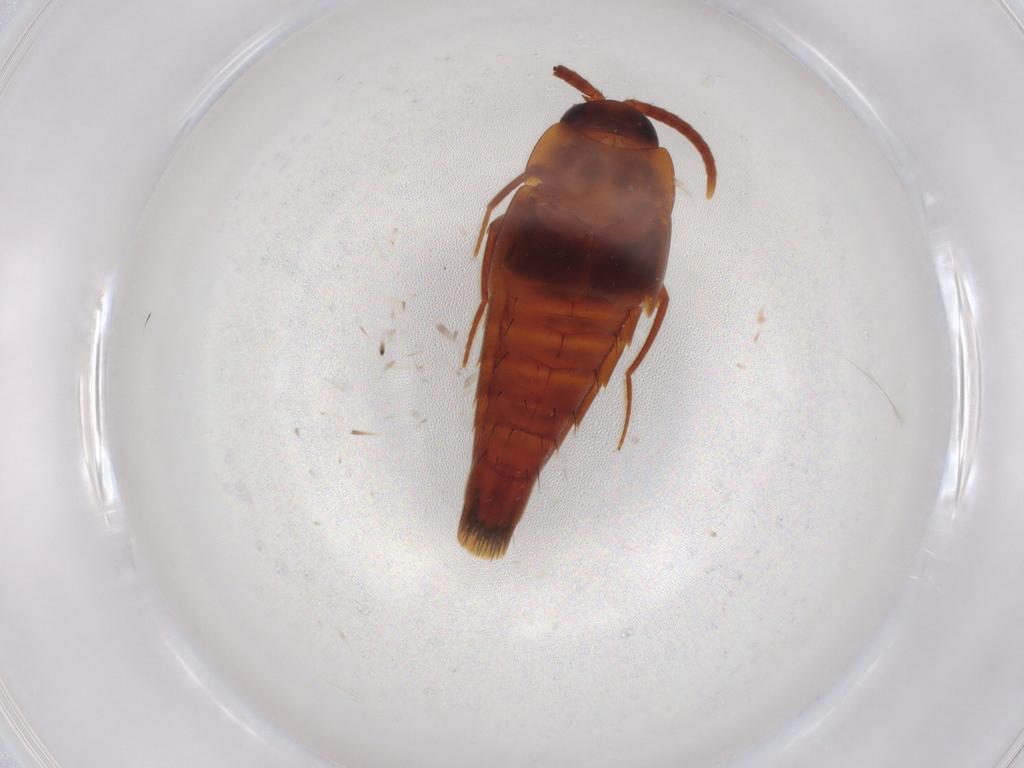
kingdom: Animalia
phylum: Arthropoda
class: Insecta
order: Coleoptera
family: Staphylinidae
